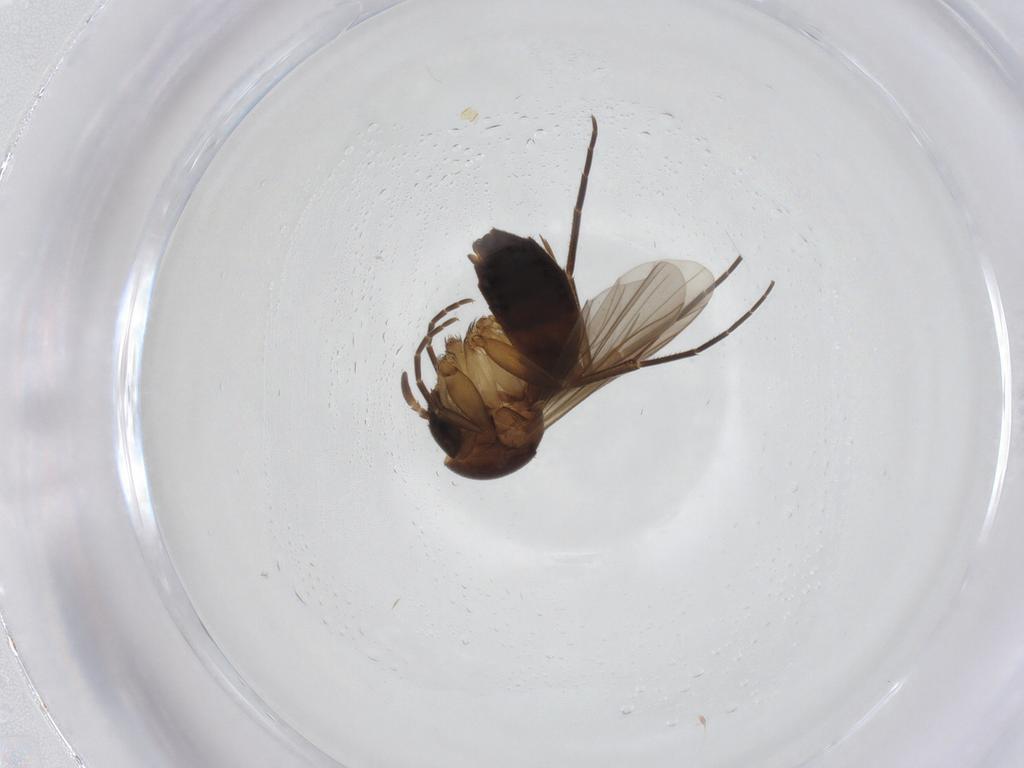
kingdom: Animalia
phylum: Arthropoda
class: Insecta
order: Diptera
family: Mycetophilidae
